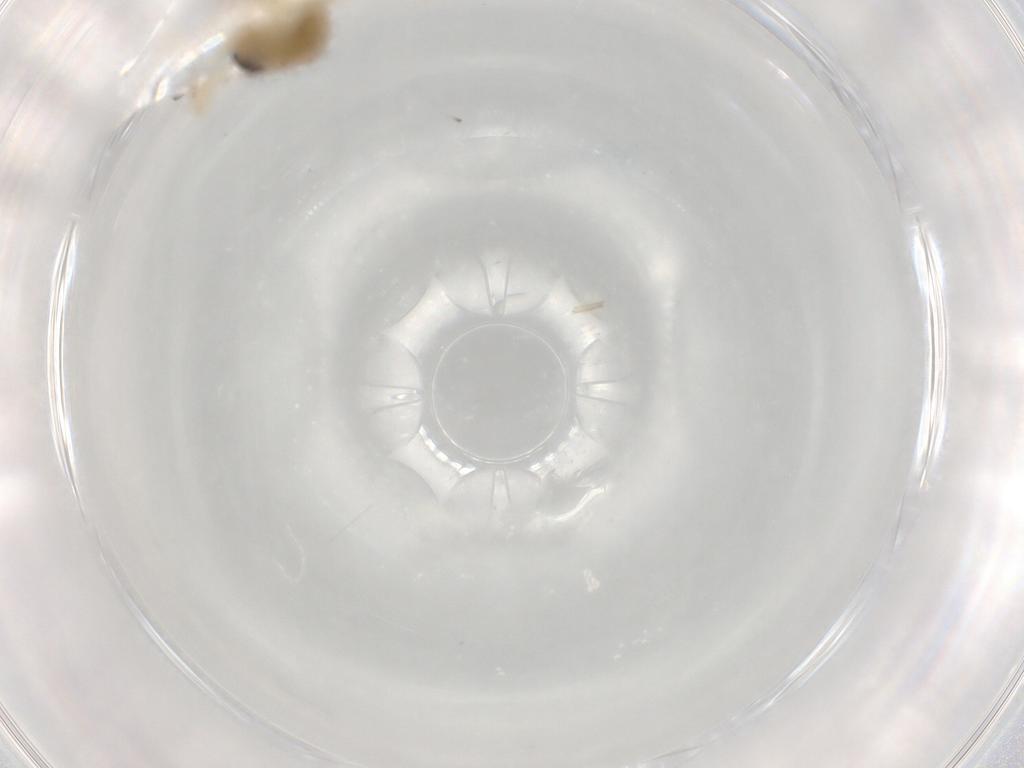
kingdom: Animalia
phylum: Arthropoda
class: Insecta
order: Diptera
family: Chironomidae
